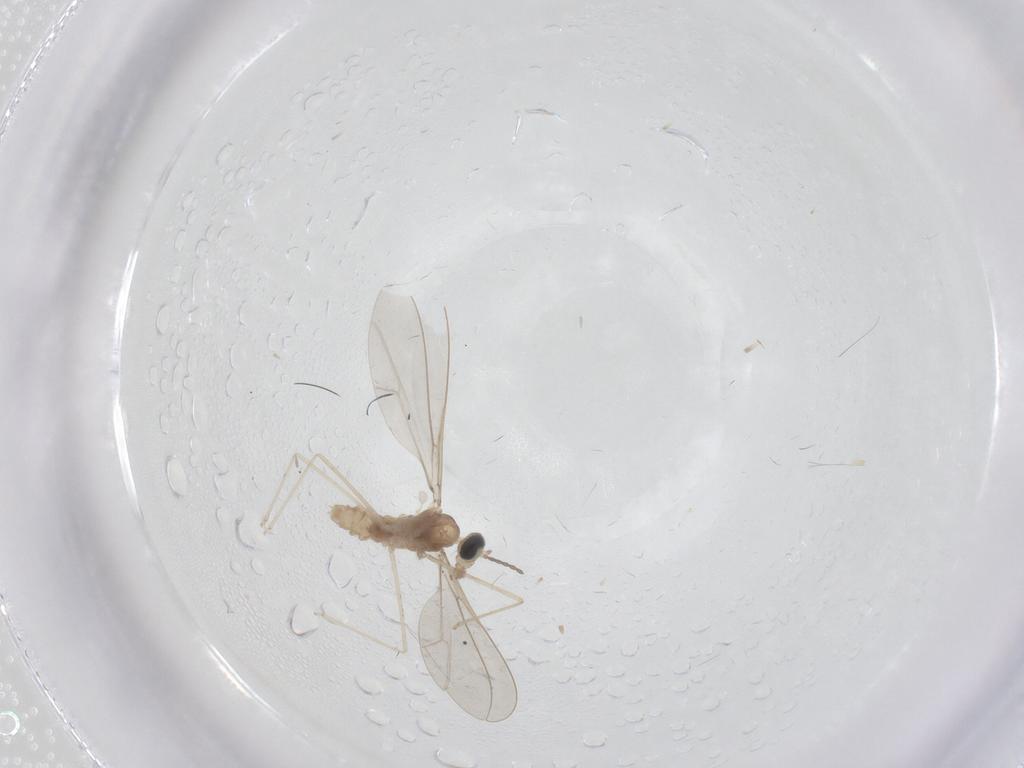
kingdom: Animalia
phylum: Arthropoda
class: Insecta
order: Diptera
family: Cecidomyiidae
